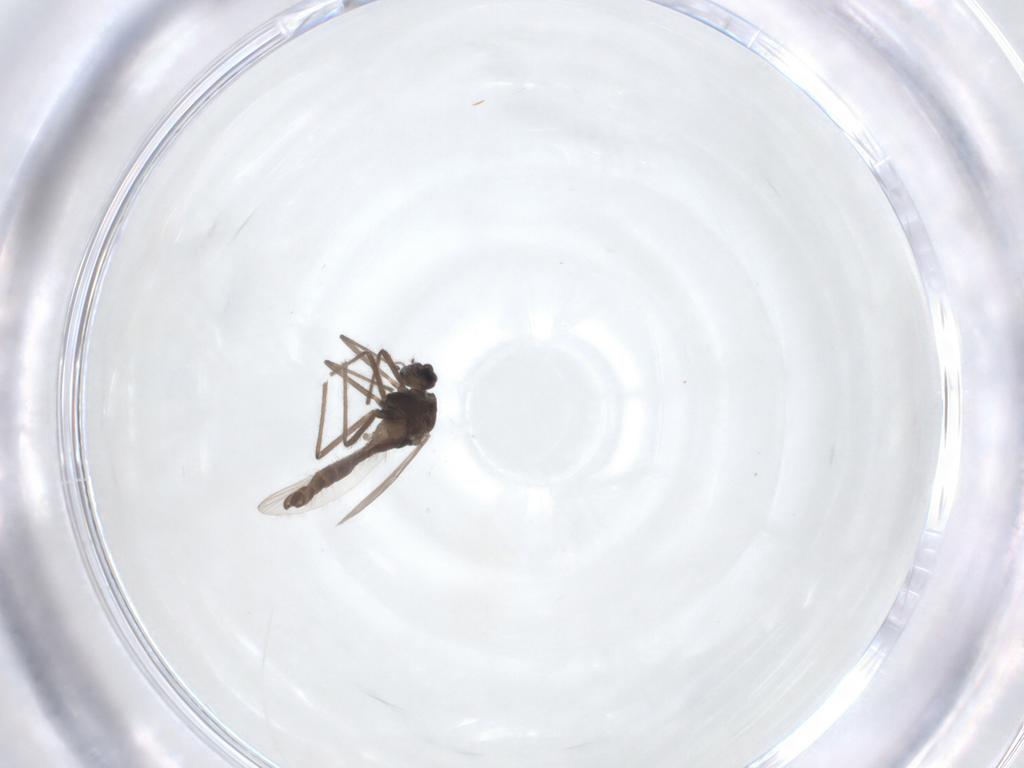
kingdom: Animalia
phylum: Arthropoda
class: Insecta
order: Diptera
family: Chironomidae
